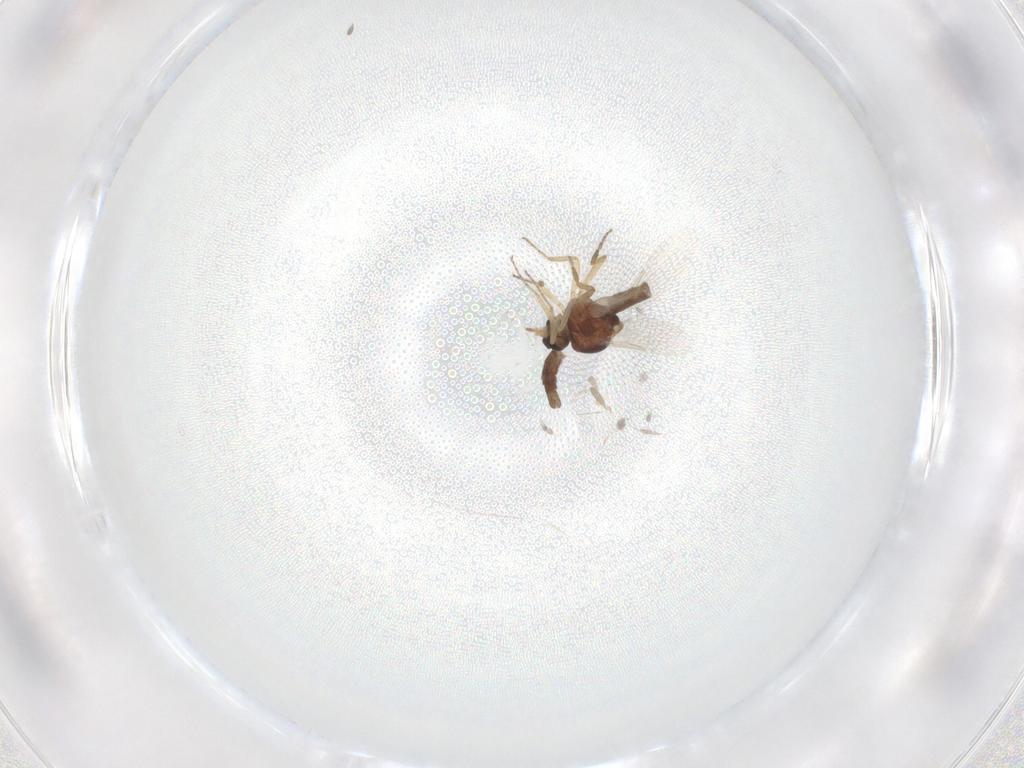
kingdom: Animalia
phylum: Arthropoda
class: Insecta
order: Diptera
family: Ceratopogonidae
